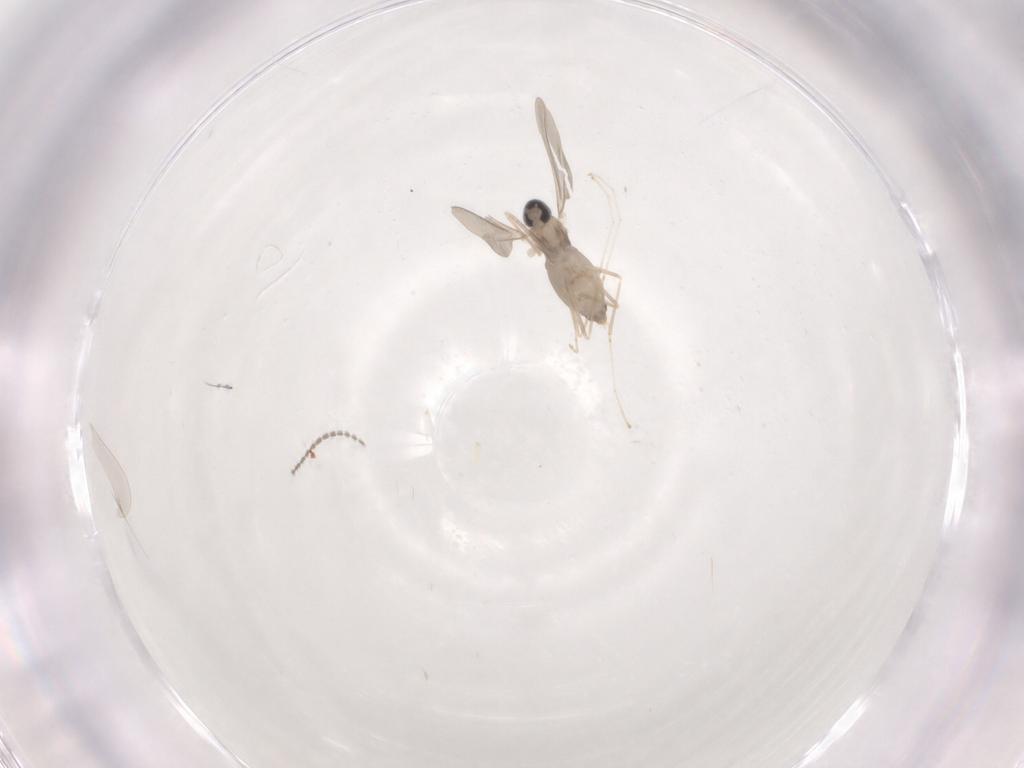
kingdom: Animalia
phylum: Arthropoda
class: Insecta
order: Diptera
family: Cecidomyiidae
